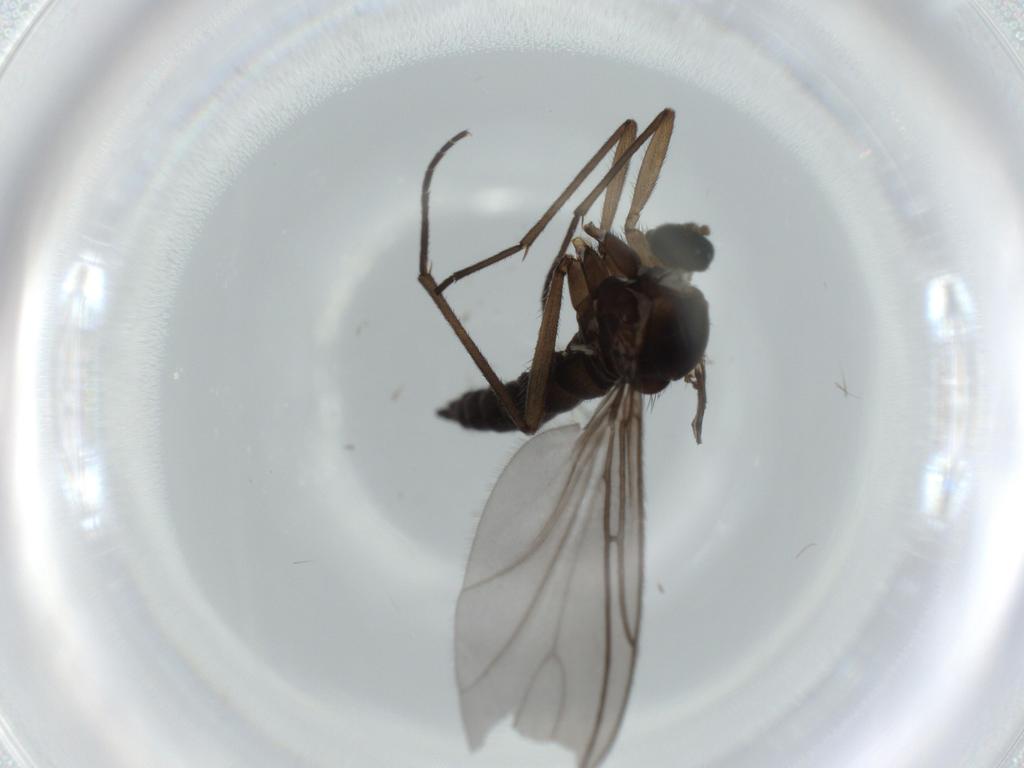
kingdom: Animalia
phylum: Arthropoda
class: Insecta
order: Diptera
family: Sciaridae
